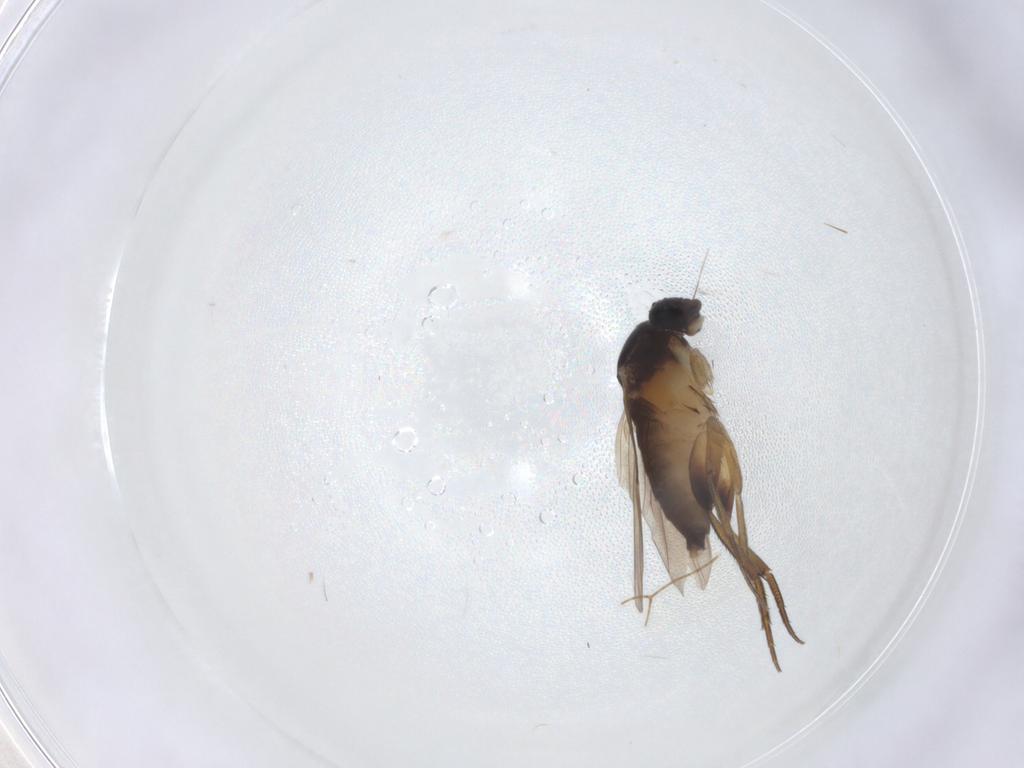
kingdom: Animalia
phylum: Arthropoda
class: Insecta
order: Diptera
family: Phoridae
